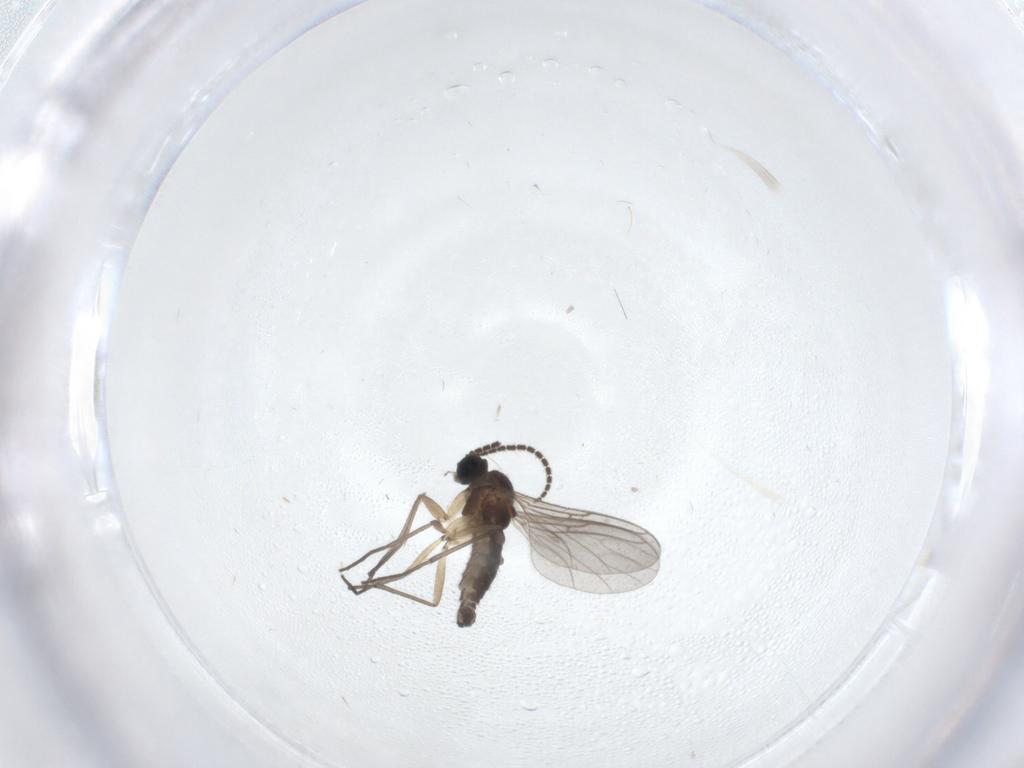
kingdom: Animalia
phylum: Arthropoda
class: Insecta
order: Diptera
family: Sciaridae
